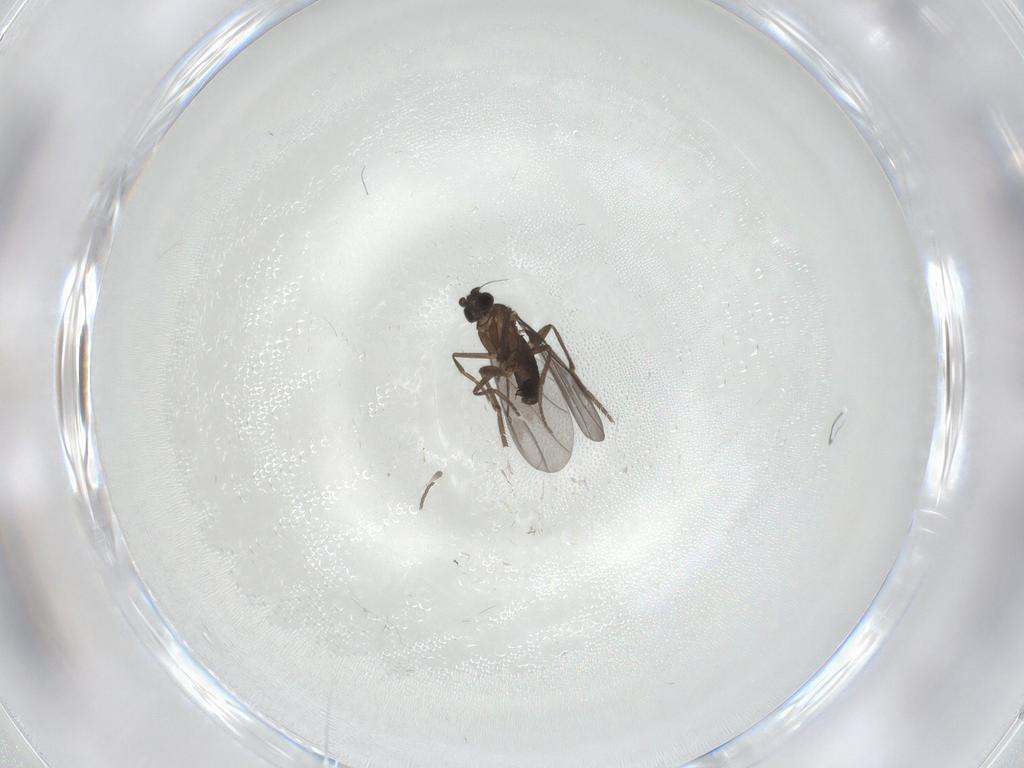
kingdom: Animalia
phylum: Arthropoda
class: Insecta
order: Diptera
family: Phoridae
